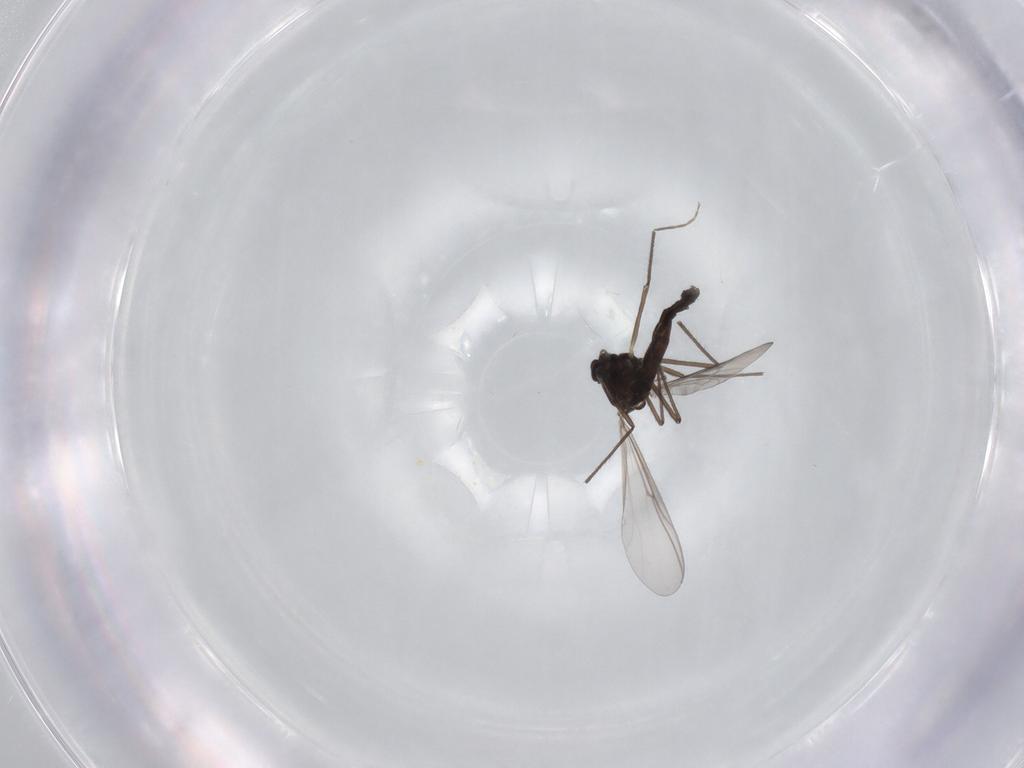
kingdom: Animalia
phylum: Arthropoda
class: Insecta
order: Diptera
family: Chironomidae
